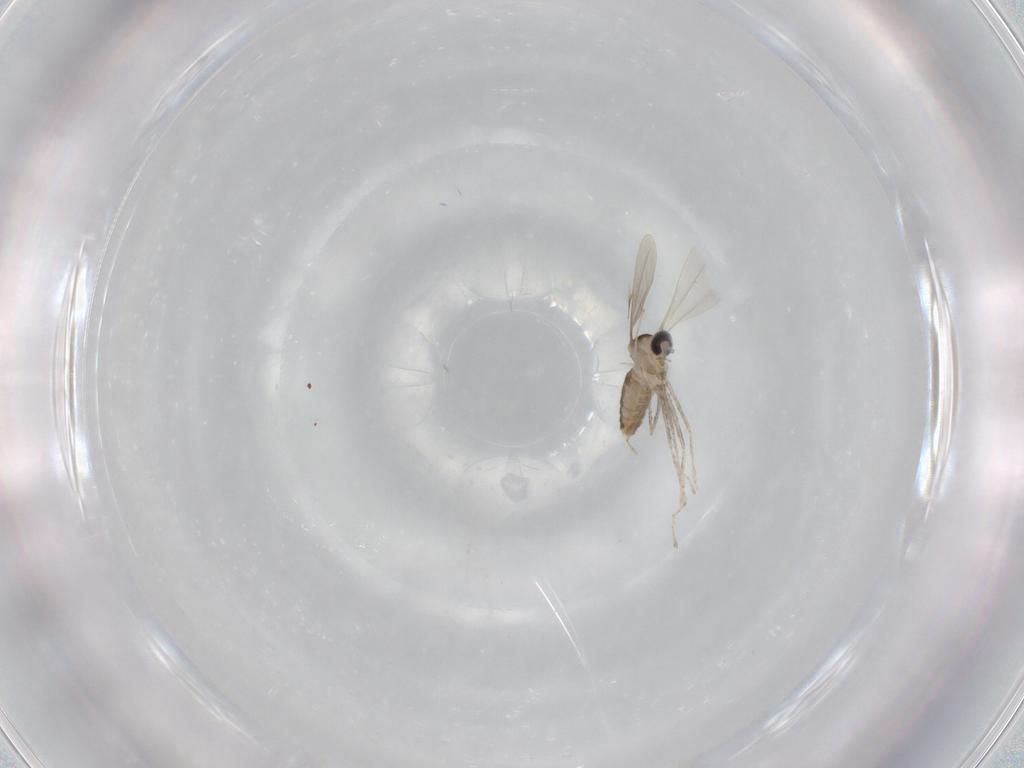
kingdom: Animalia
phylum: Arthropoda
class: Insecta
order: Diptera
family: Cecidomyiidae
